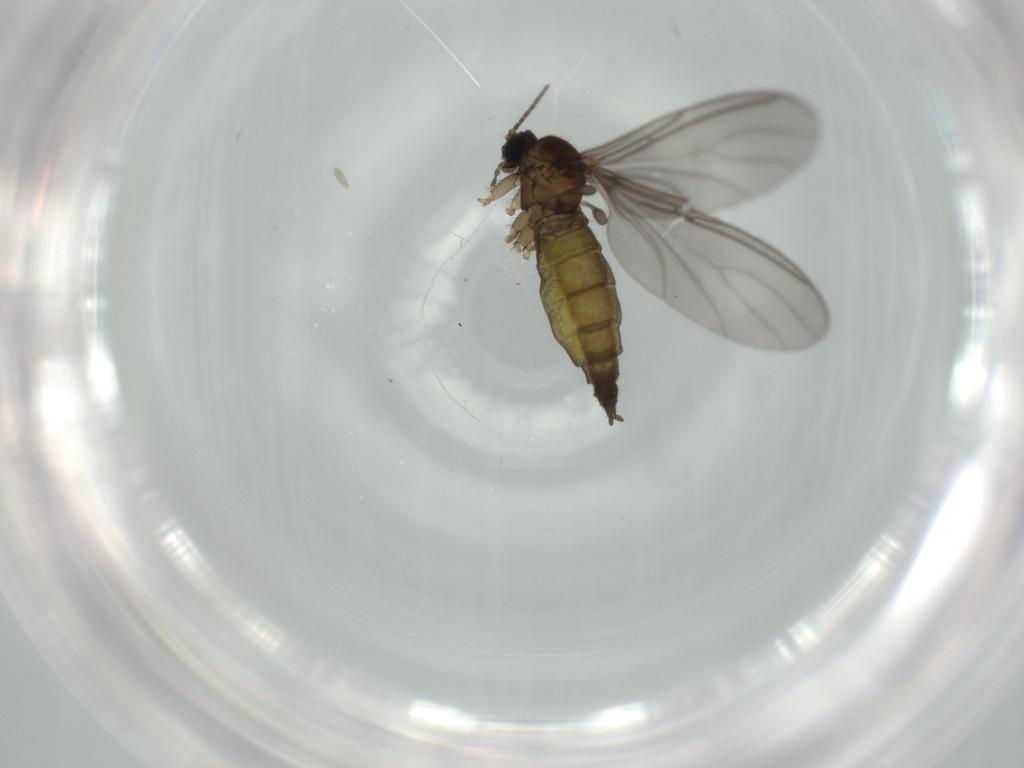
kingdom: Animalia
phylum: Arthropoda
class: Insecta
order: Diptera
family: Sciaridae
